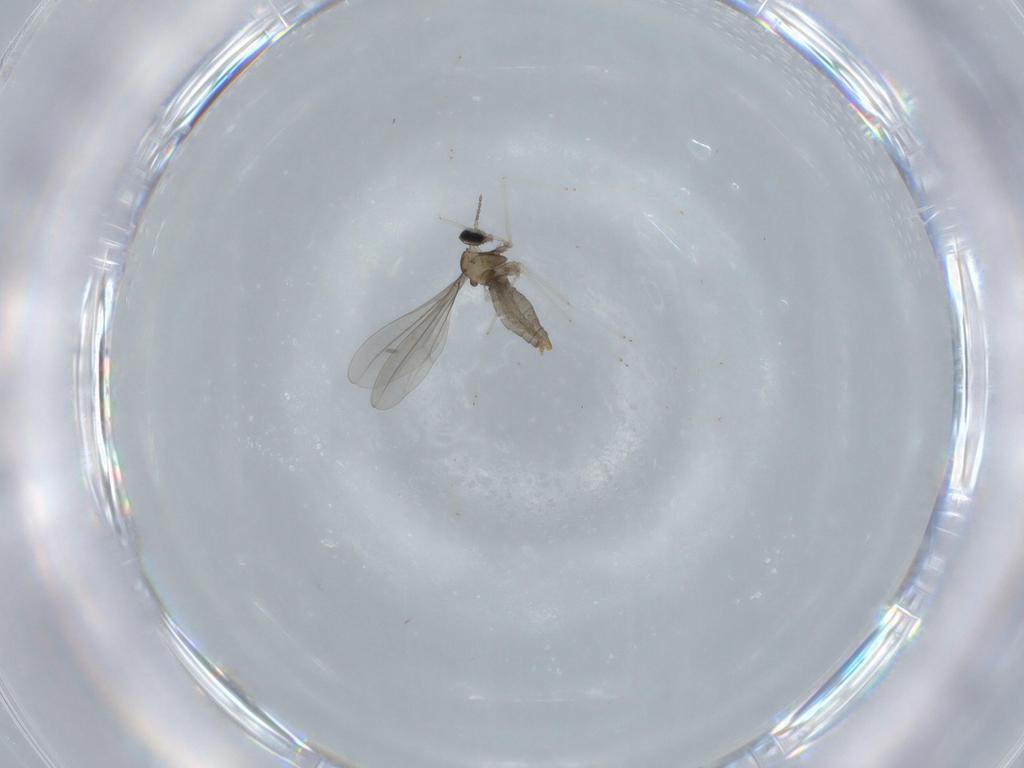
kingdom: Animalia
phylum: Arthropoda
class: Insecta
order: Diptera
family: Cecidomyiidae
